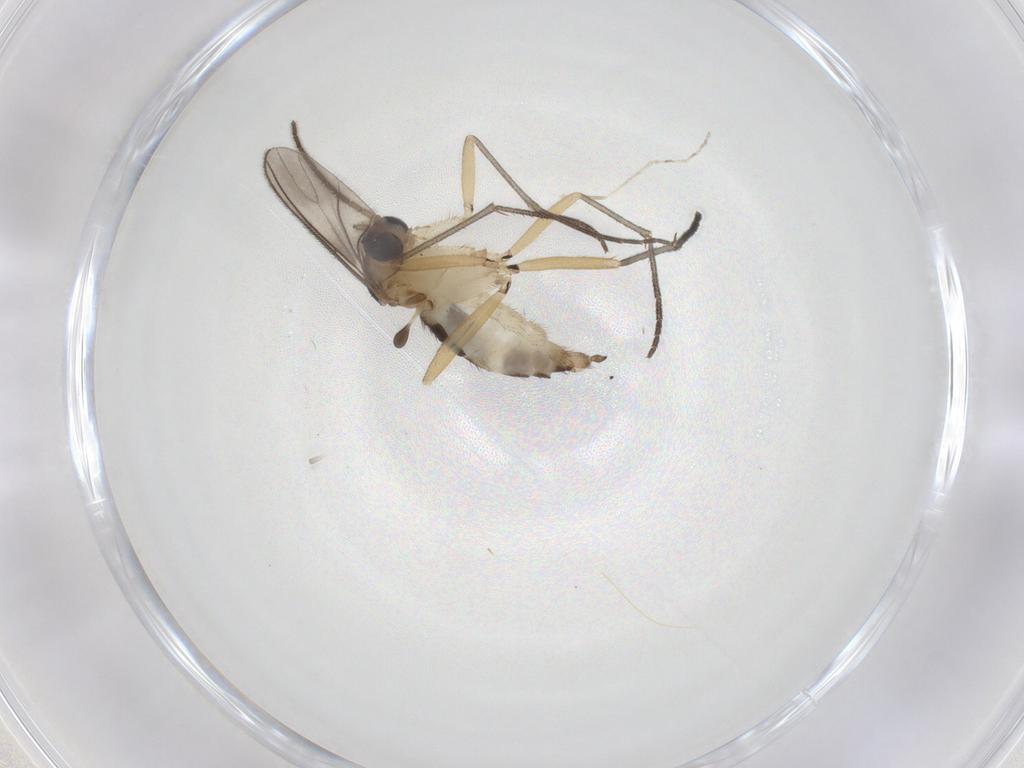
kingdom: Animalia
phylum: Arthropoda
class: Insecta
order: Diptera
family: Sciaridae
